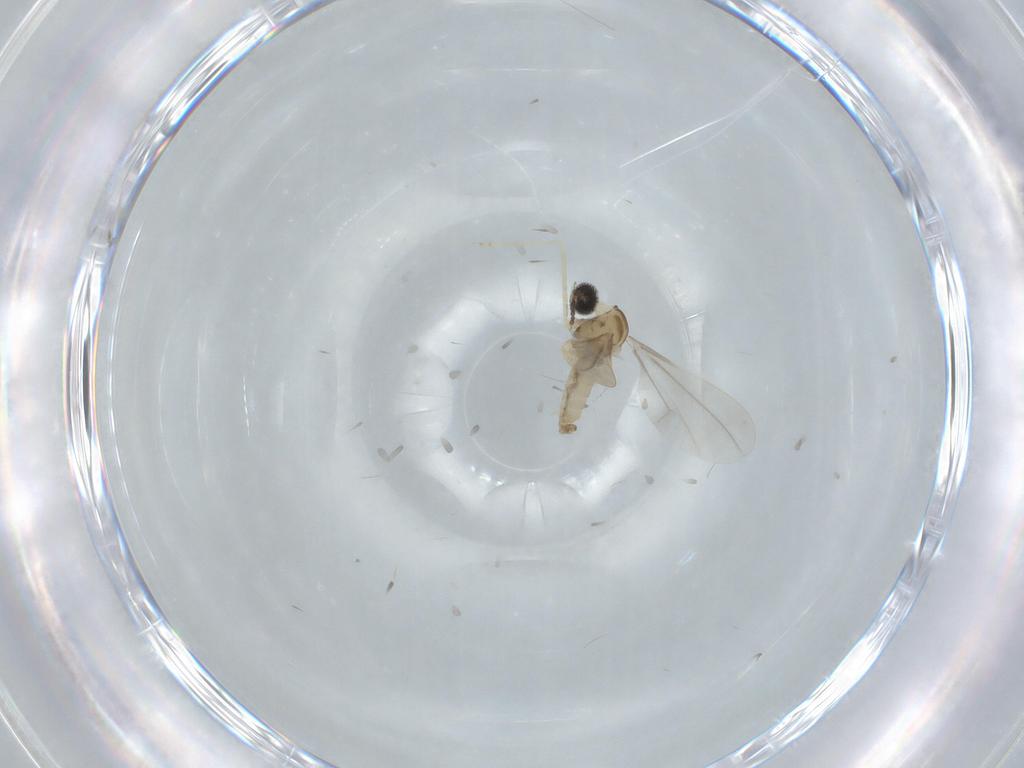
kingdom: Animalia
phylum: Arthropoda
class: Insecta
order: Diptera
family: Cecidomyiidae
